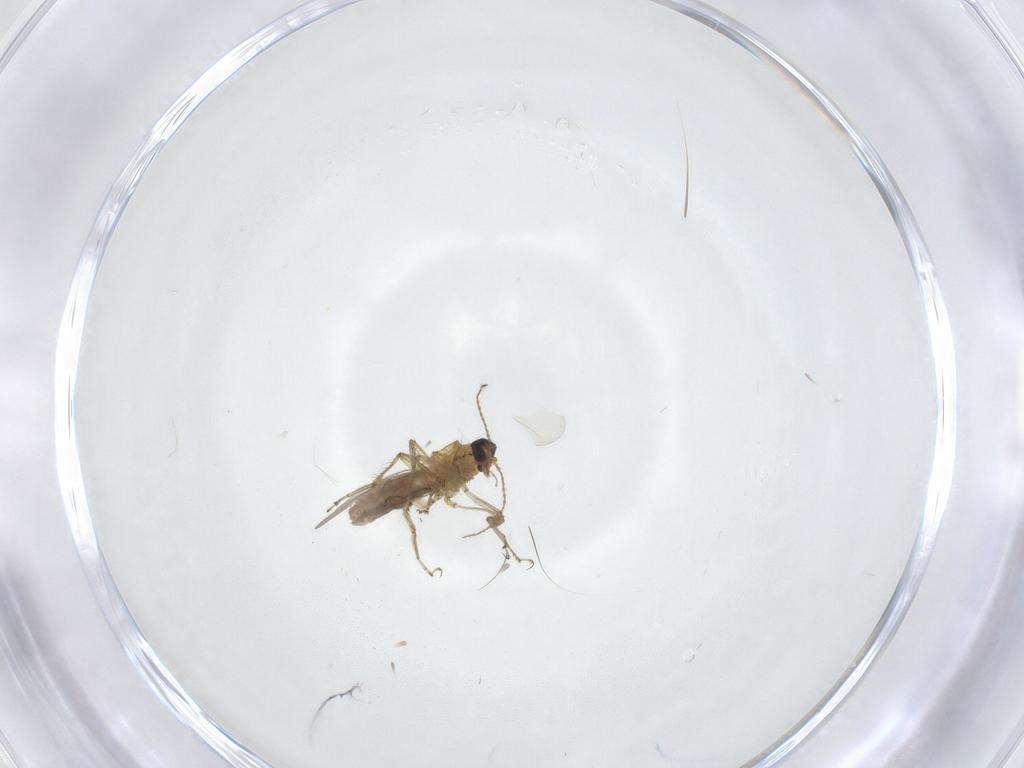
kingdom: Animalia
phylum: Arthropoda
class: Insecta
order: Diptera
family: Ceratopogonidae
